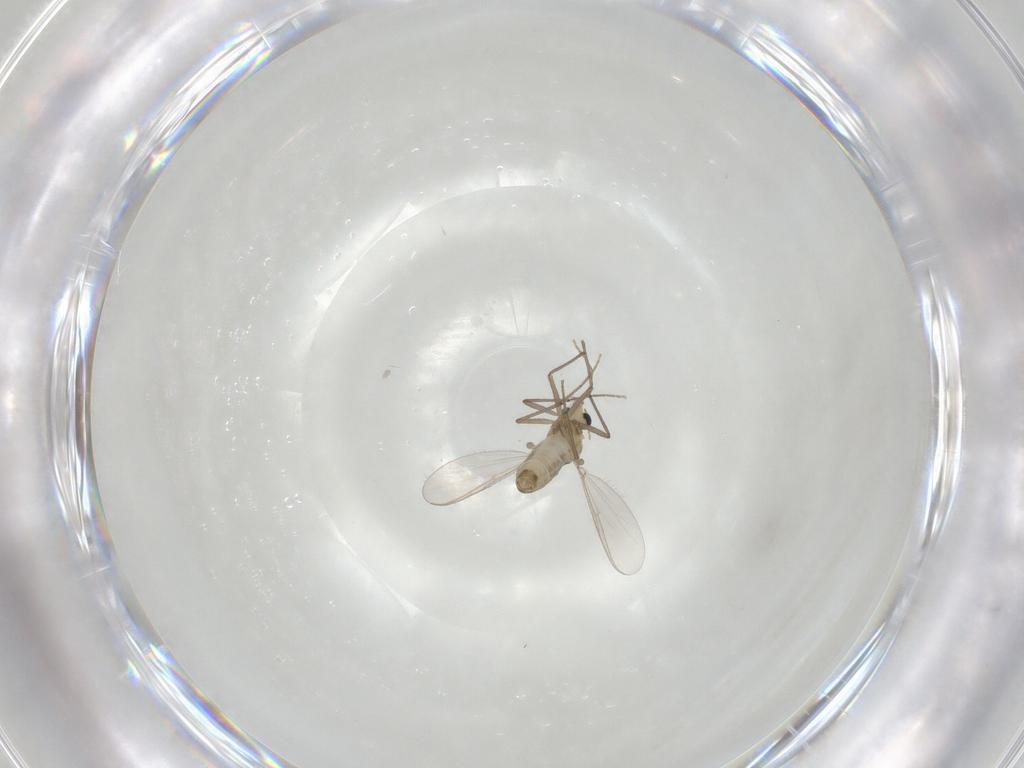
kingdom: Animalia
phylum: Arthropoda
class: Insecta
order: Diptera
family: Chironomidae
